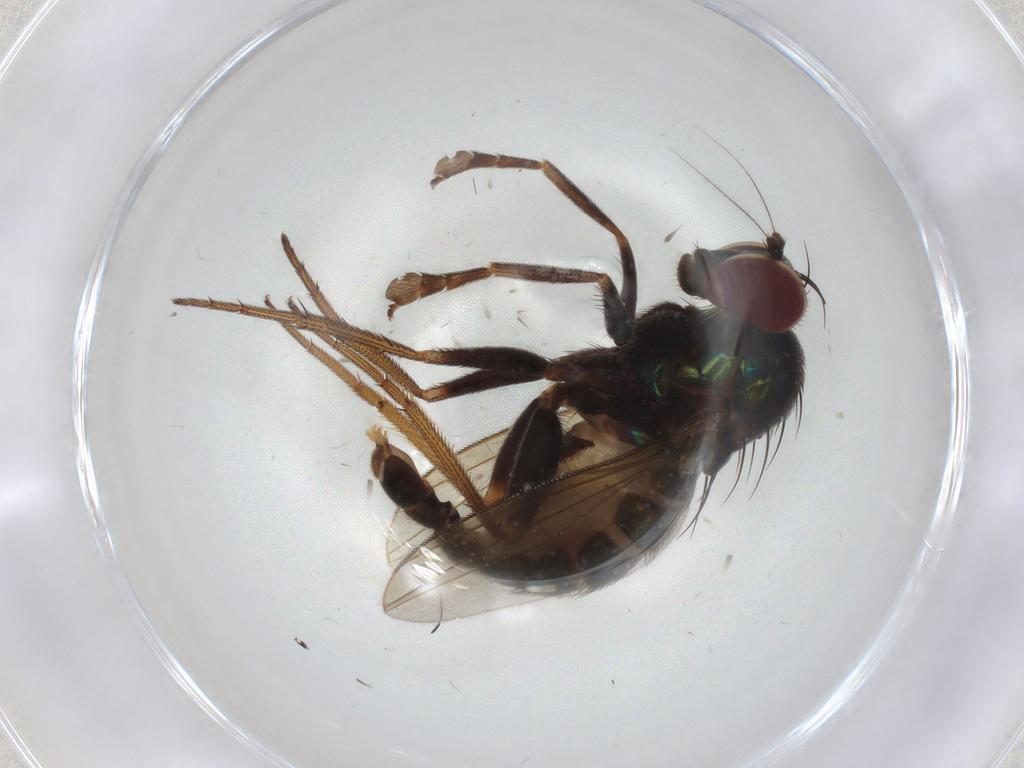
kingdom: Animalia
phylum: Arthropoda
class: Insecta
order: Diptera
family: Dolichopodidae
